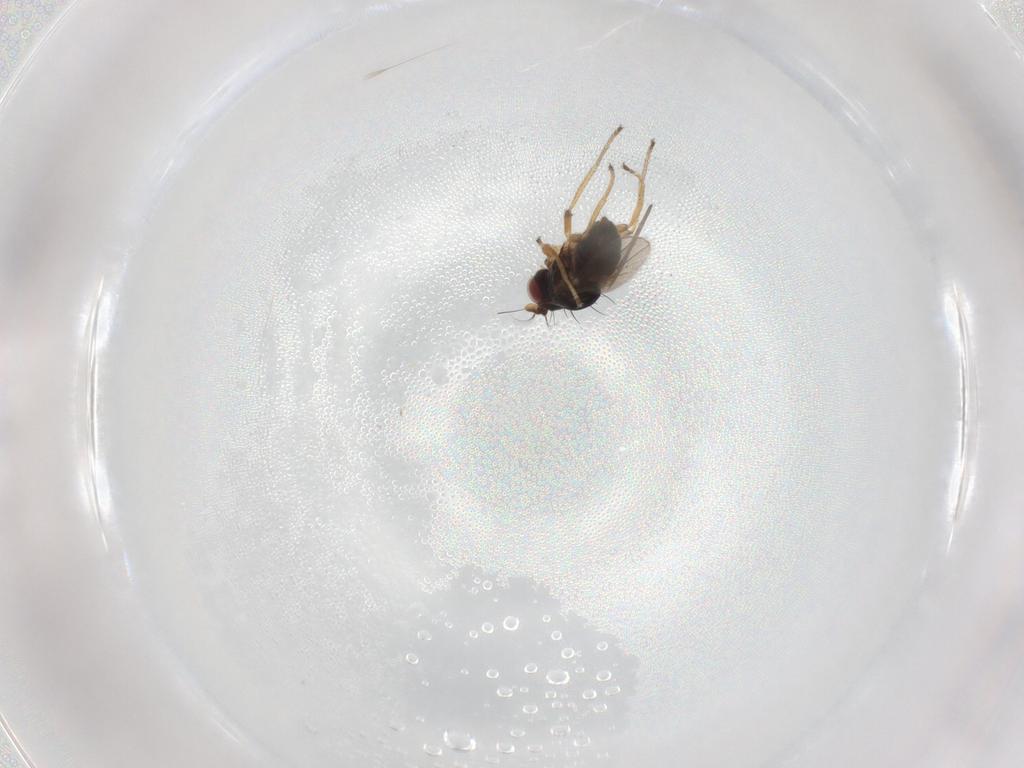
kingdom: Animalia
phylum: Arthropoda
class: Insecta
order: Diptera
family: Ephydridae
